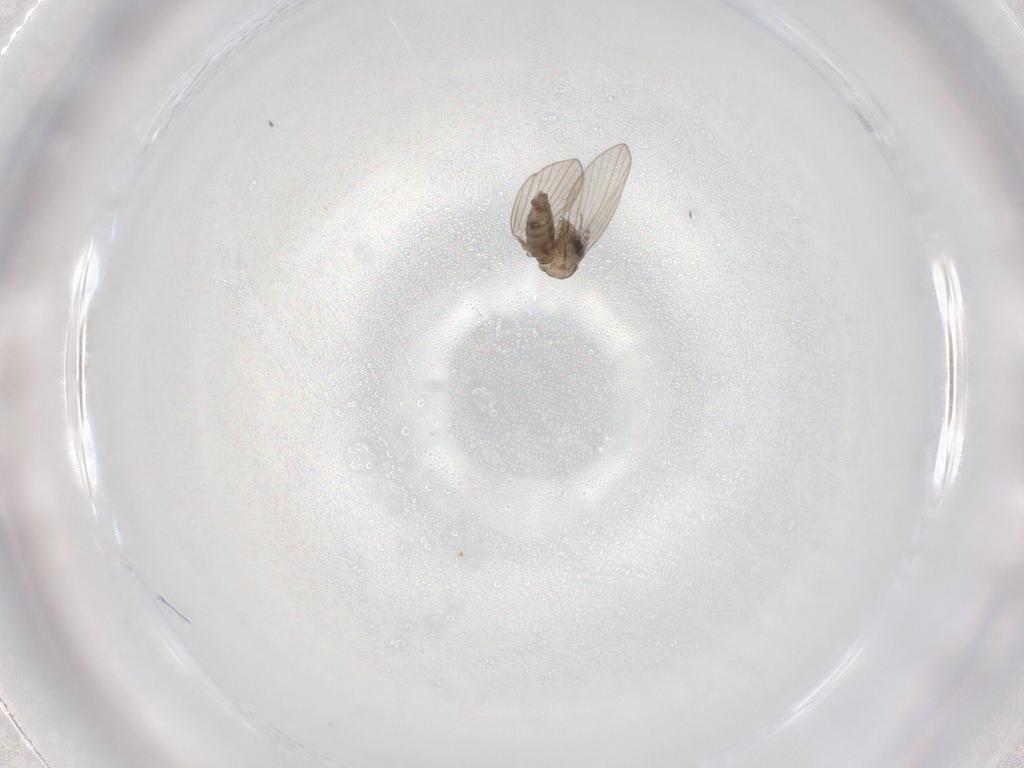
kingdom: Animalia
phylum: Arthropoda
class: Insecta
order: Diptera
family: Psychodidae
